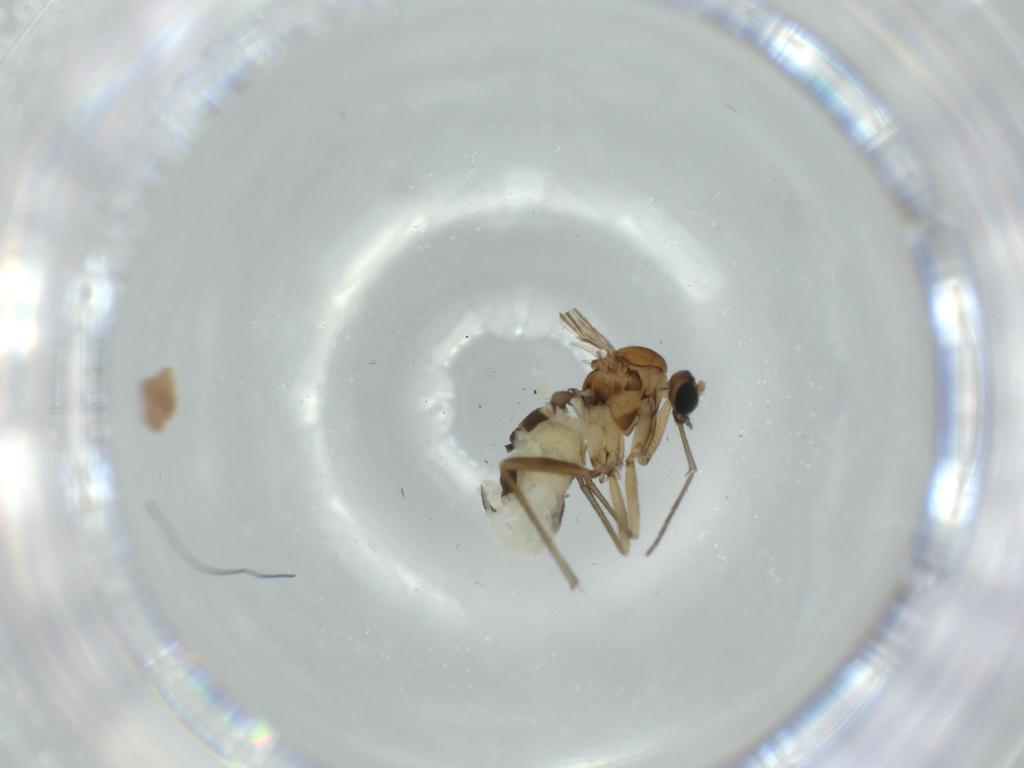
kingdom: Animalia
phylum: Arthropoda
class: Insecta
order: Diptera
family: Sciaridae
